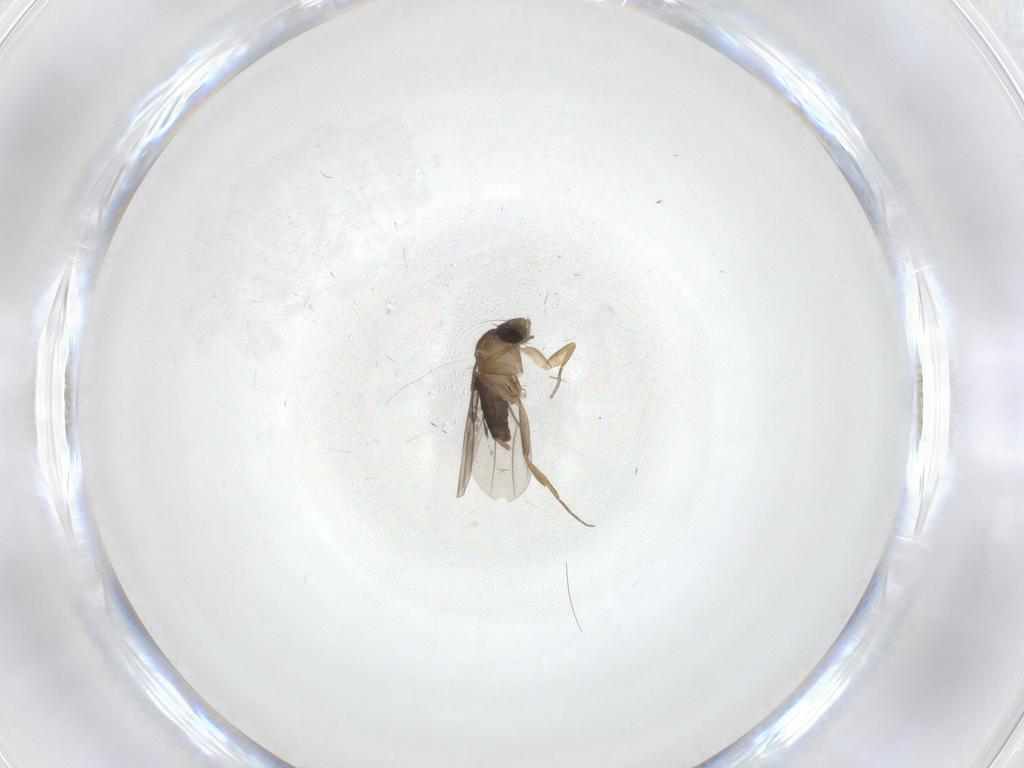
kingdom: Animalia
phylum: Arthropoda
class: Insecta
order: Diptera
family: Phoridae
